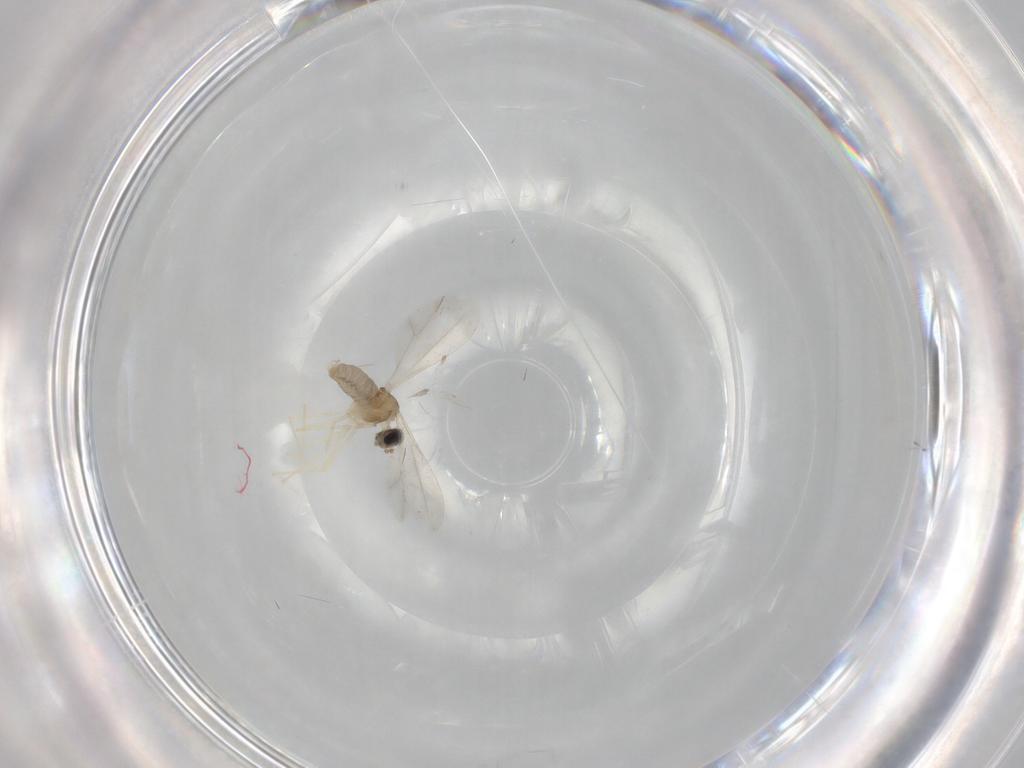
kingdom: Animalia
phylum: Arthropoda
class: Insecta
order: Diptera
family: Cecidomyiidae
